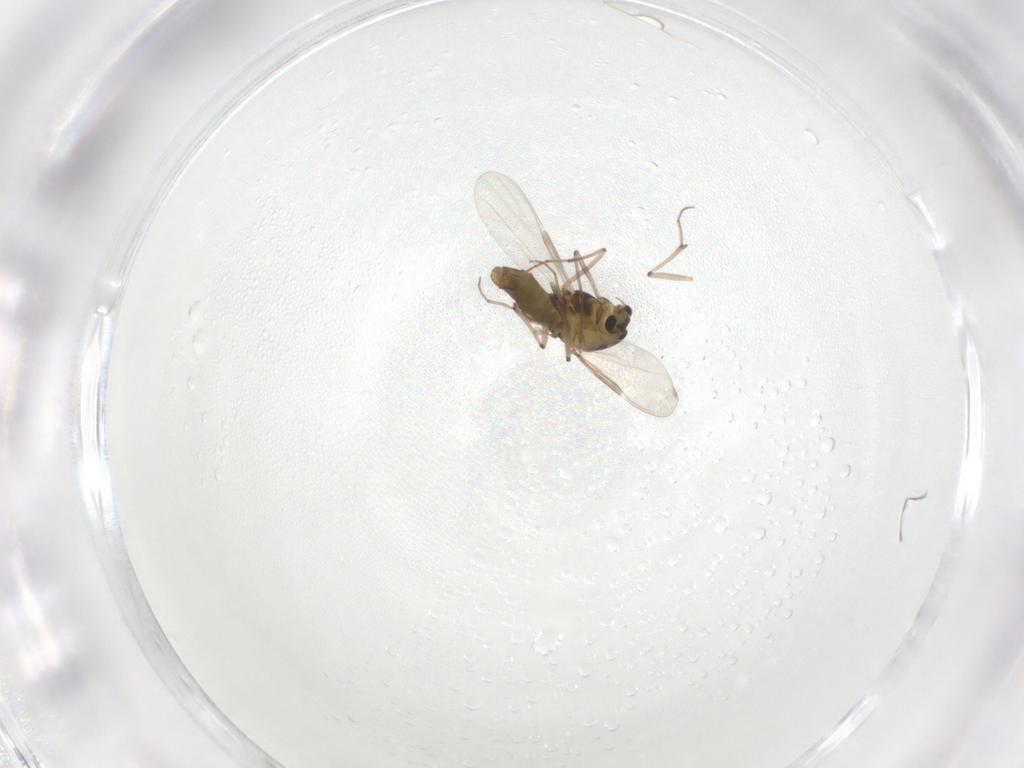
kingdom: Animalia
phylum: Arthropoda
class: Insecta
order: Diptera
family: Chironomidae
